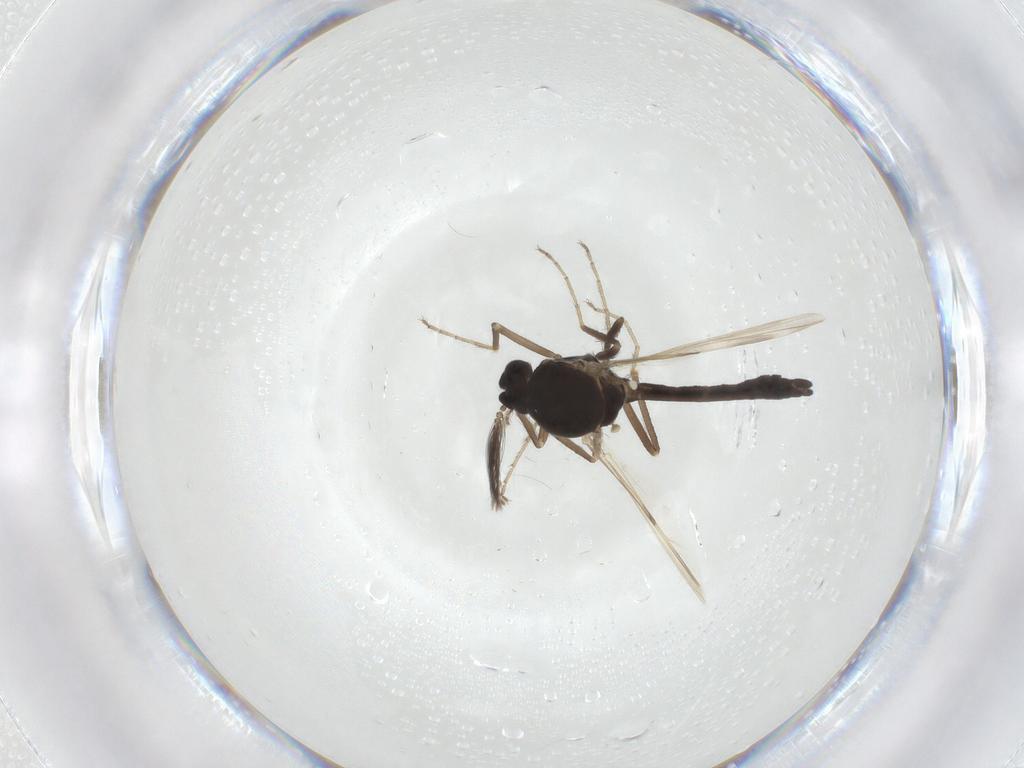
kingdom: Animalia
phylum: Arthropoda
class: Insecta
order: Diptera
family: Ceratopogonidae
